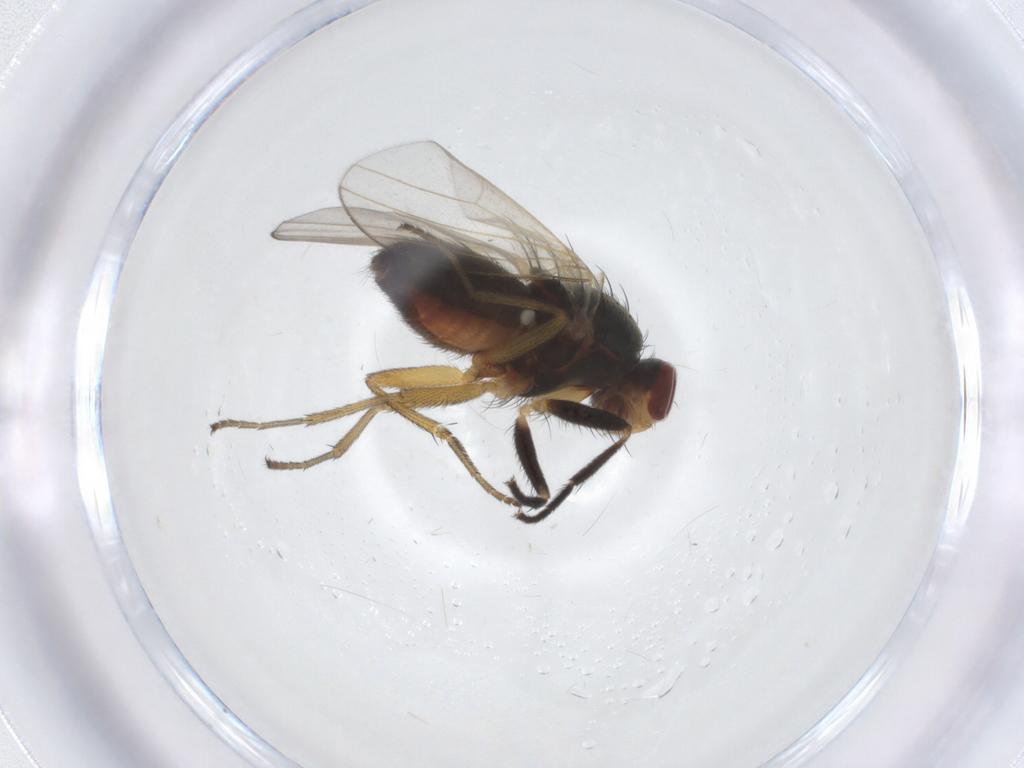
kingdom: Animalia
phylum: Arthropoda
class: Insecta
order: Diptera
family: Heleomyzidae
